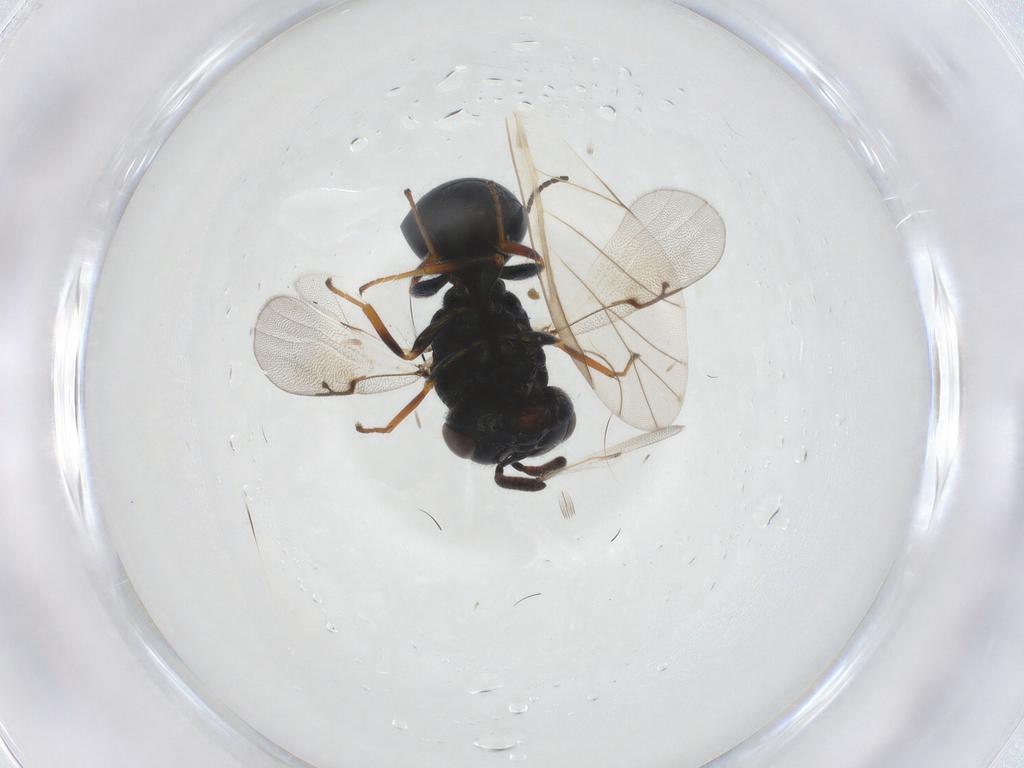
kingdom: Animalia
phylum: Arthropoda
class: Insecta
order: Hymenoptera
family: Perilampidae
